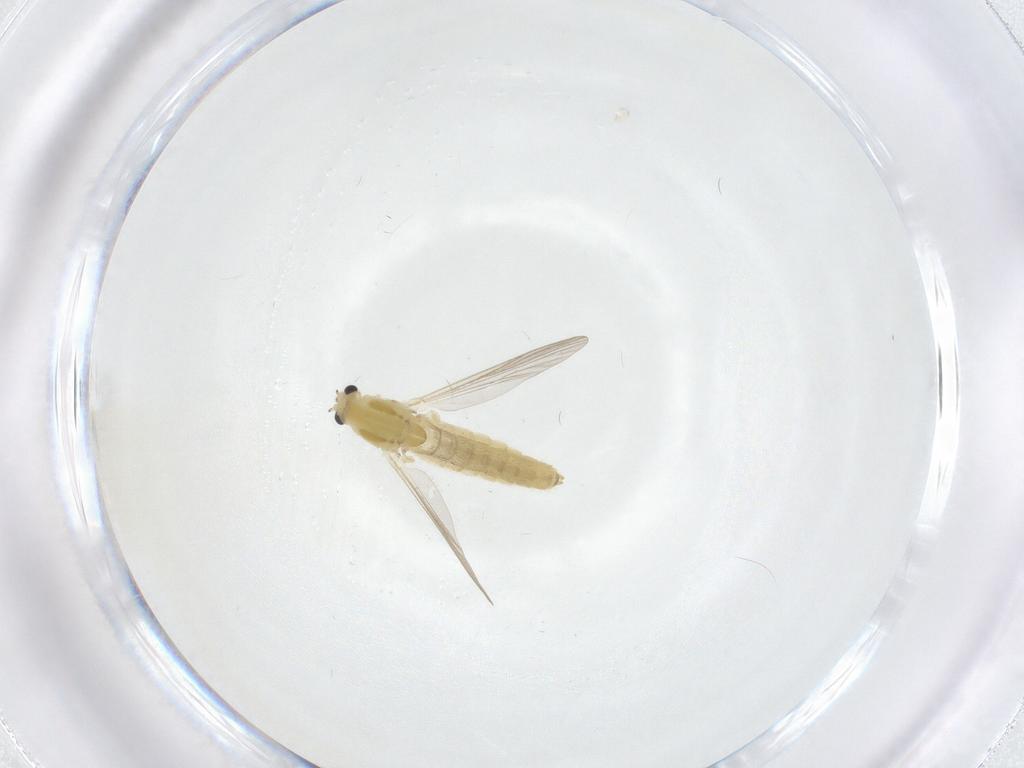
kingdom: Animalia
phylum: Arthropoda
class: Insecta
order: Diptera
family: Chironomidae
